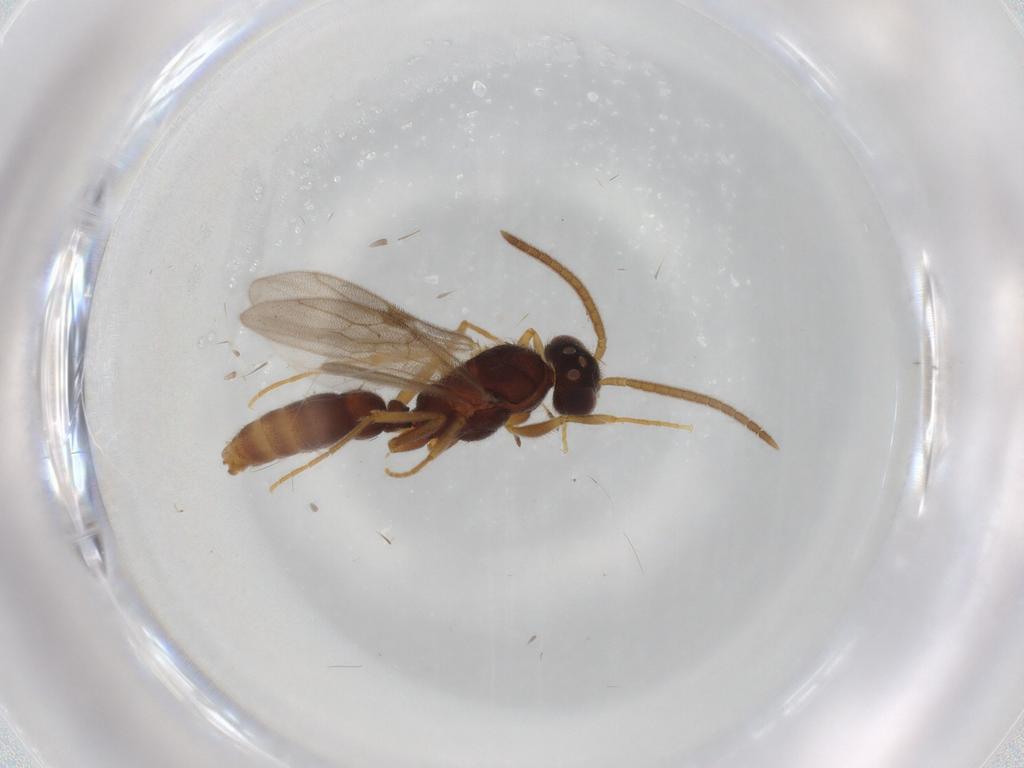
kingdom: Animalia
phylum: Arthropoda
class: Insecta
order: Hymenoptera
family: Formicidae
